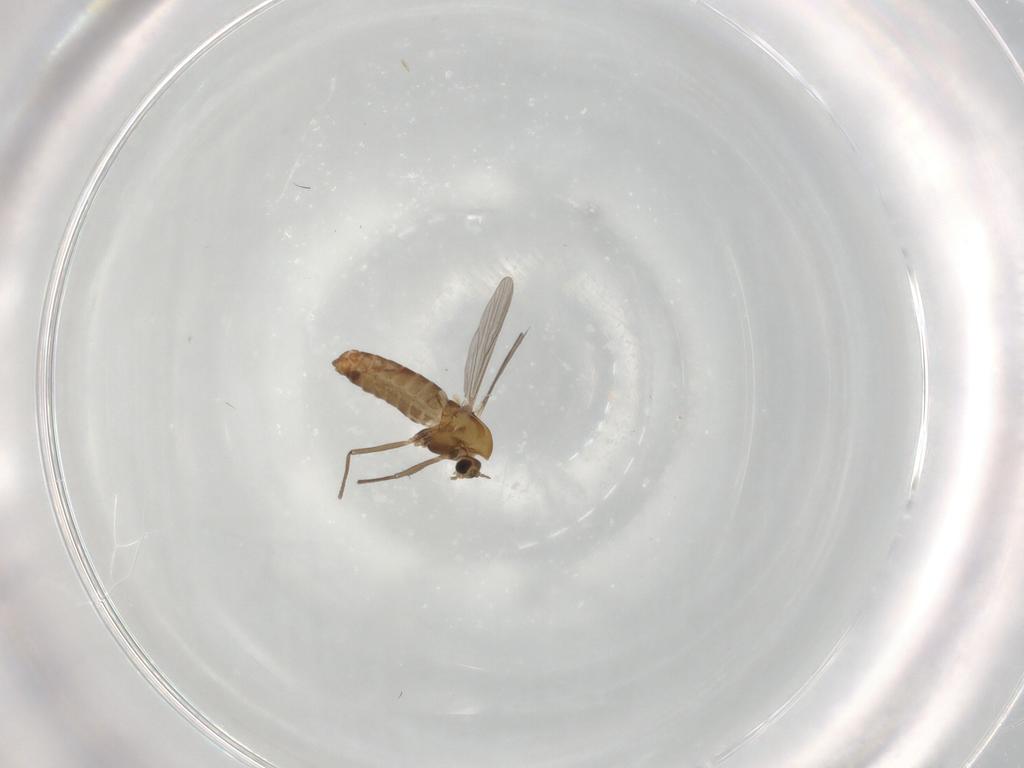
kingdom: Animalia
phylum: Arthropoda
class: Insecta
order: Diptera
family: Chironomidae
